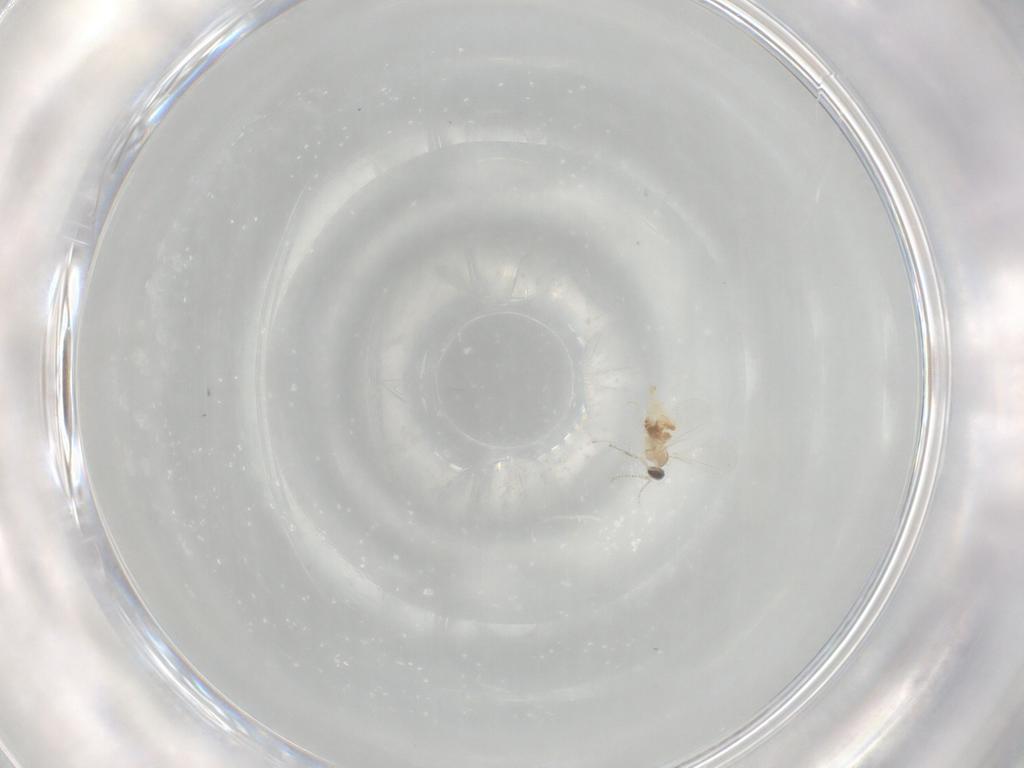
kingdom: Animalia
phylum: Arthropoda
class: Insecta
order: Diptera
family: Cecidomyiidae
